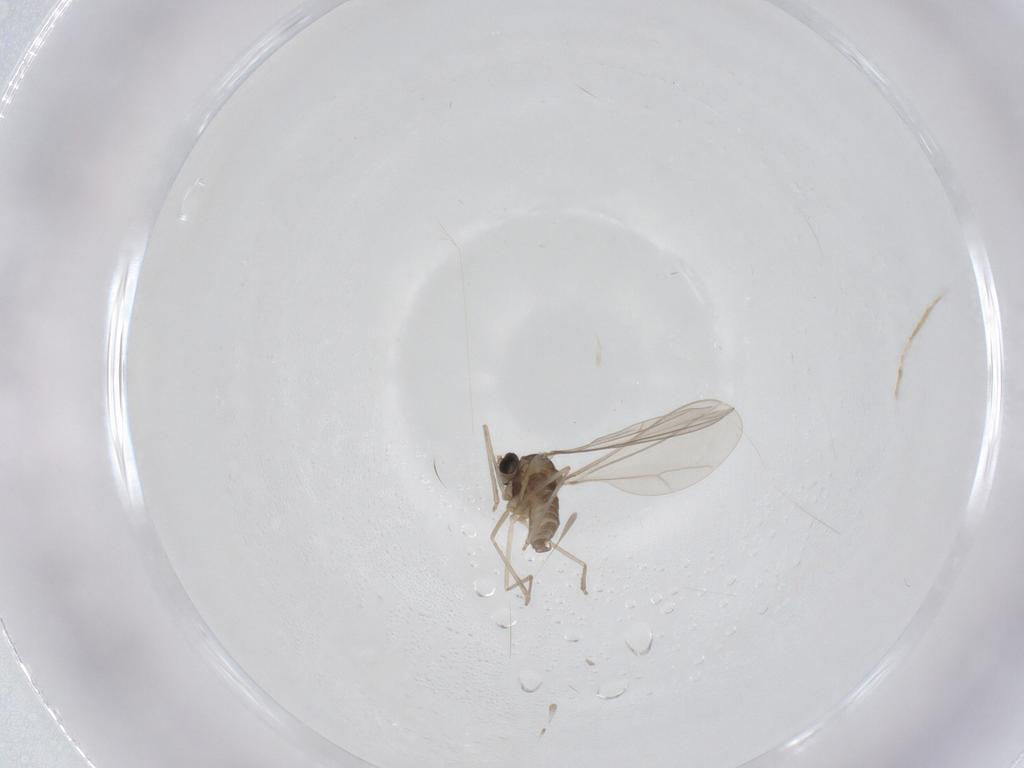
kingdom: Animalia
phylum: Arthropoda
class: Insecta
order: Diptera
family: Cecidomyiidae
